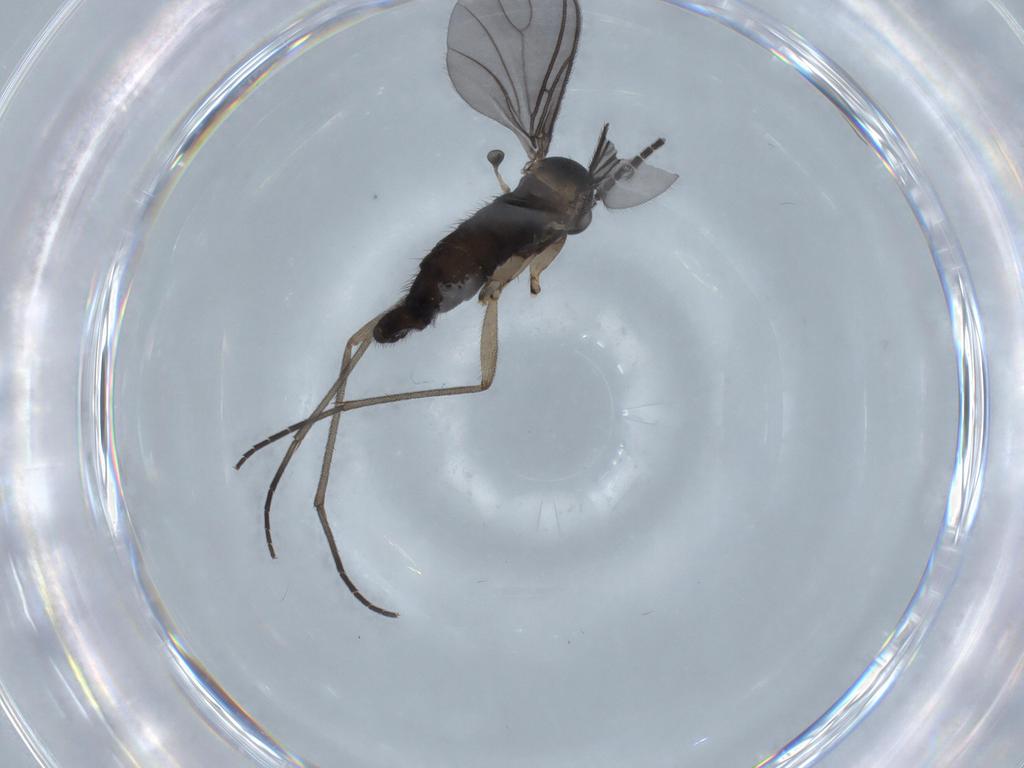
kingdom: Animalia
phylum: Arthropoda
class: Insecta
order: Diptera
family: Sciaridae
